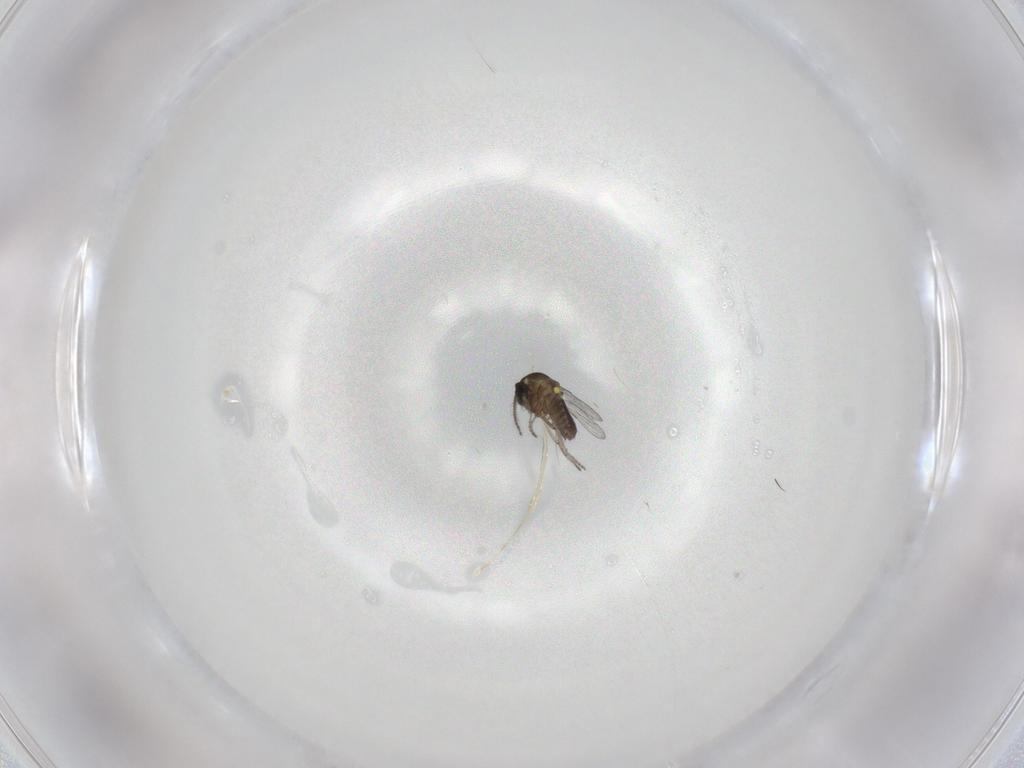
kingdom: Animalia
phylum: Arthropoda
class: Insecta
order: Diptera
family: Ceratopogonidae
